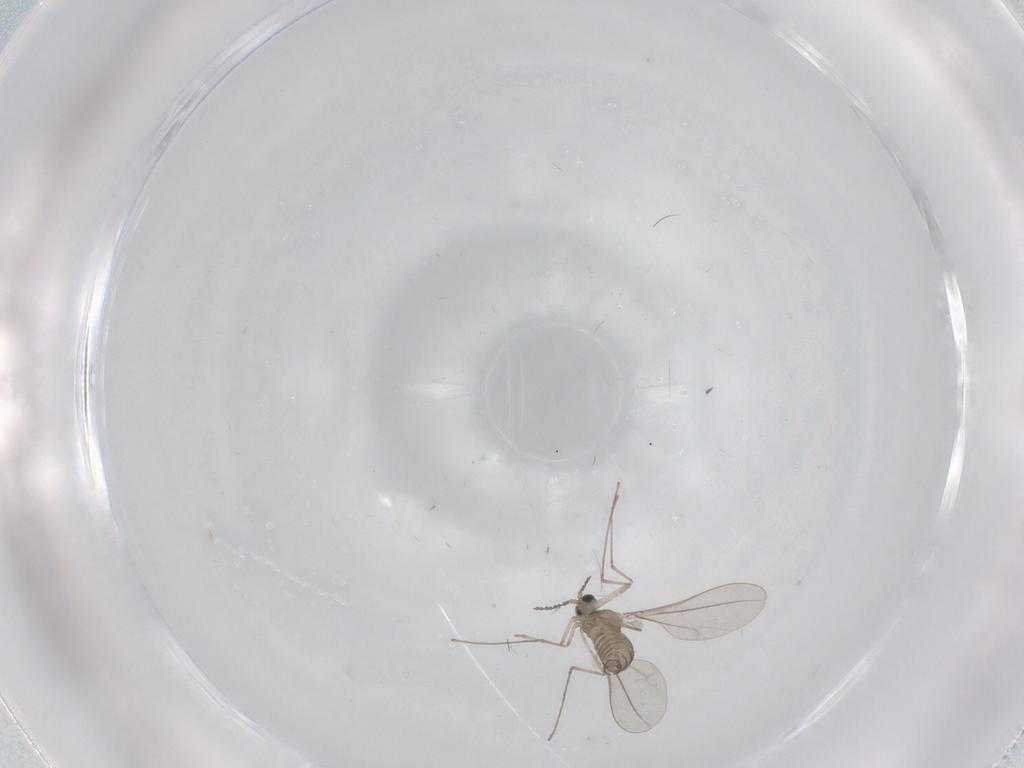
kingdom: Animalia
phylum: Arthropoda
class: Insecta
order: Diptera
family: Cecidomyiidae
